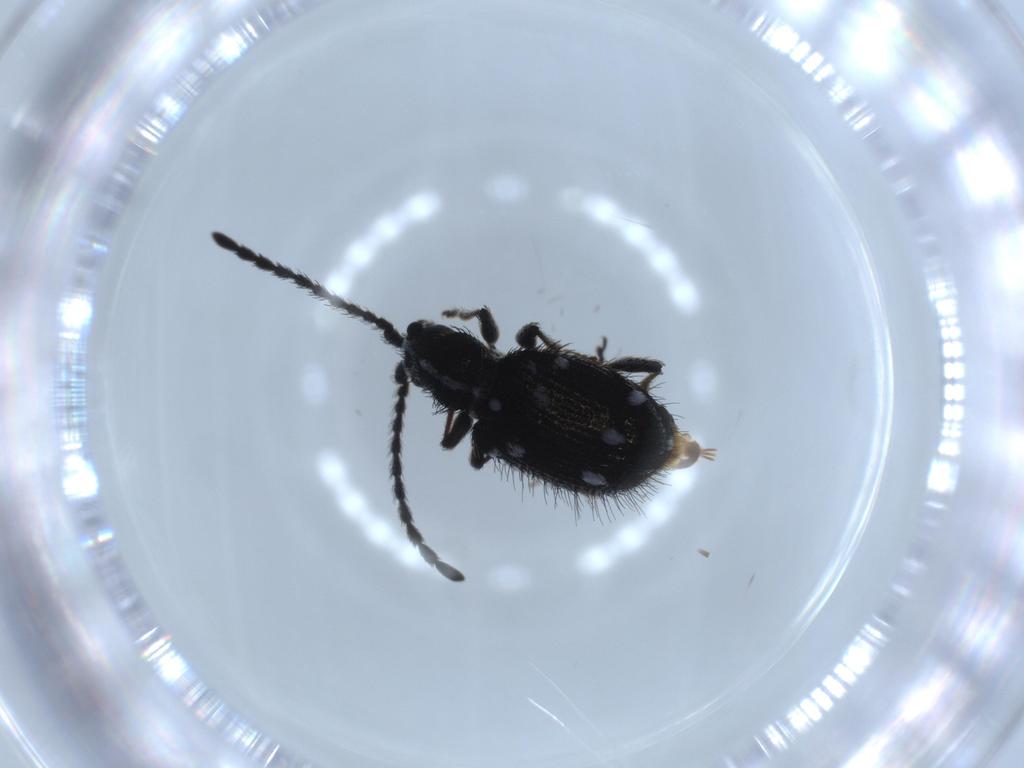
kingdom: Animalia
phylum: Arthropoda
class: Insecta
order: Coleoptera
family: Chrysomelidae
